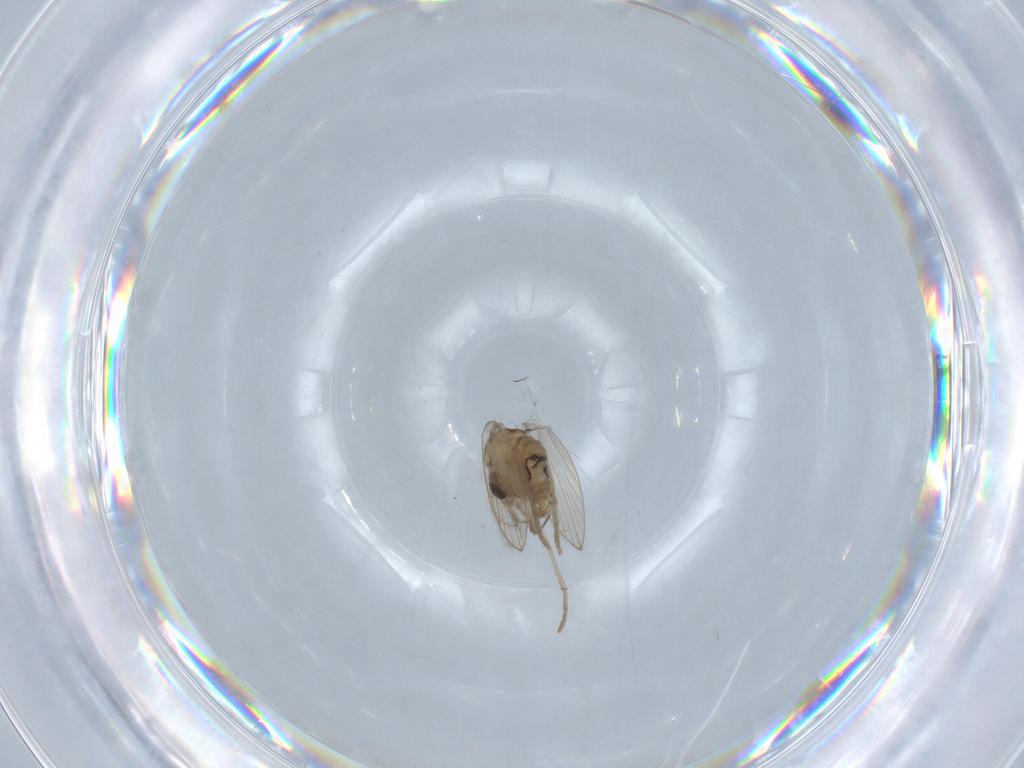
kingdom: Animalia
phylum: Arthropoda
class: Insecta
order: Diptera
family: Psychodidae
